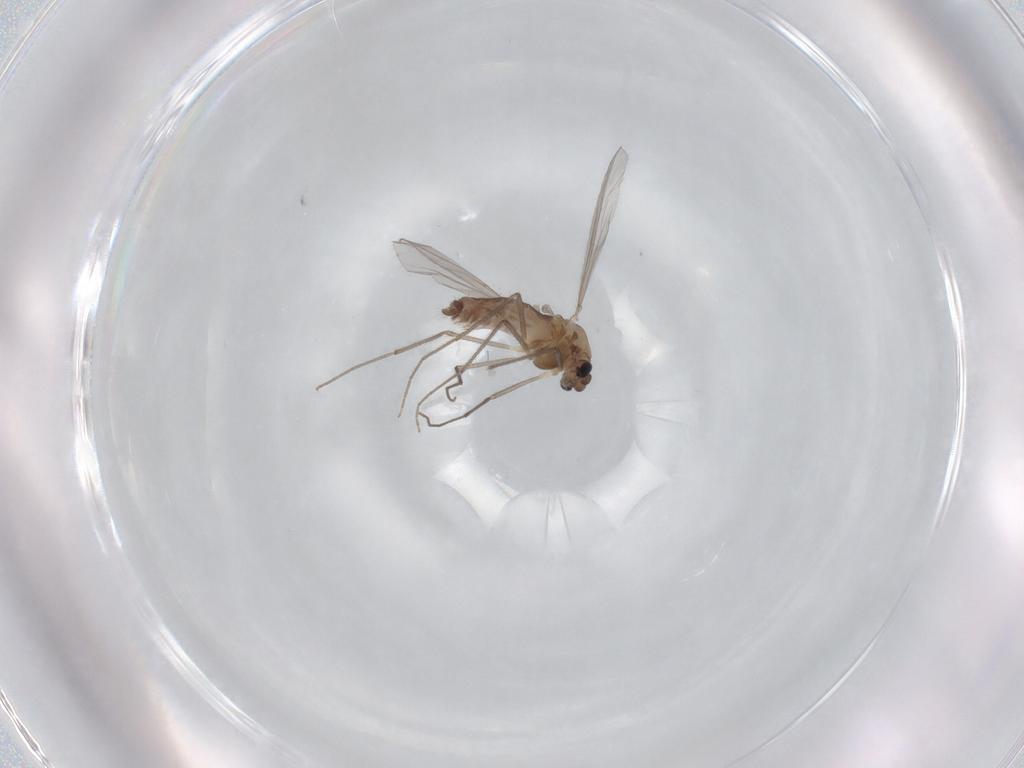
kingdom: Animalia
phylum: Arthropoda
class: Insecta
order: Diptera
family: Chironomidae
